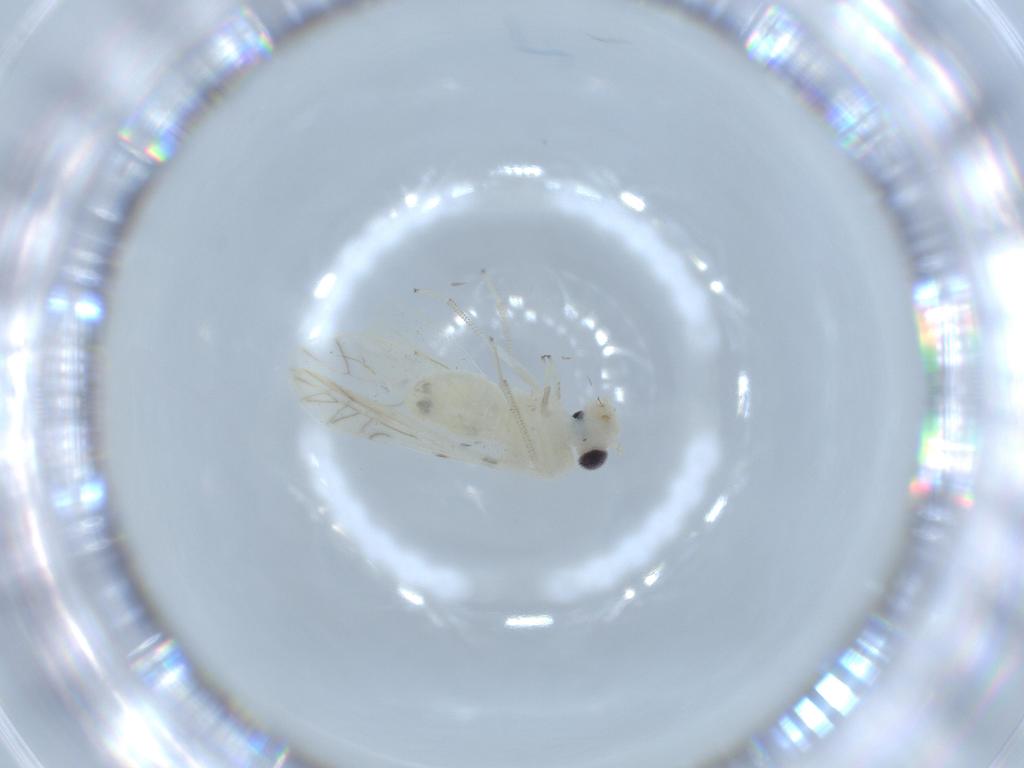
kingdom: Animalia
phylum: Arthropoda
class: Insecta
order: Psocodea
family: Caeciliusidae
